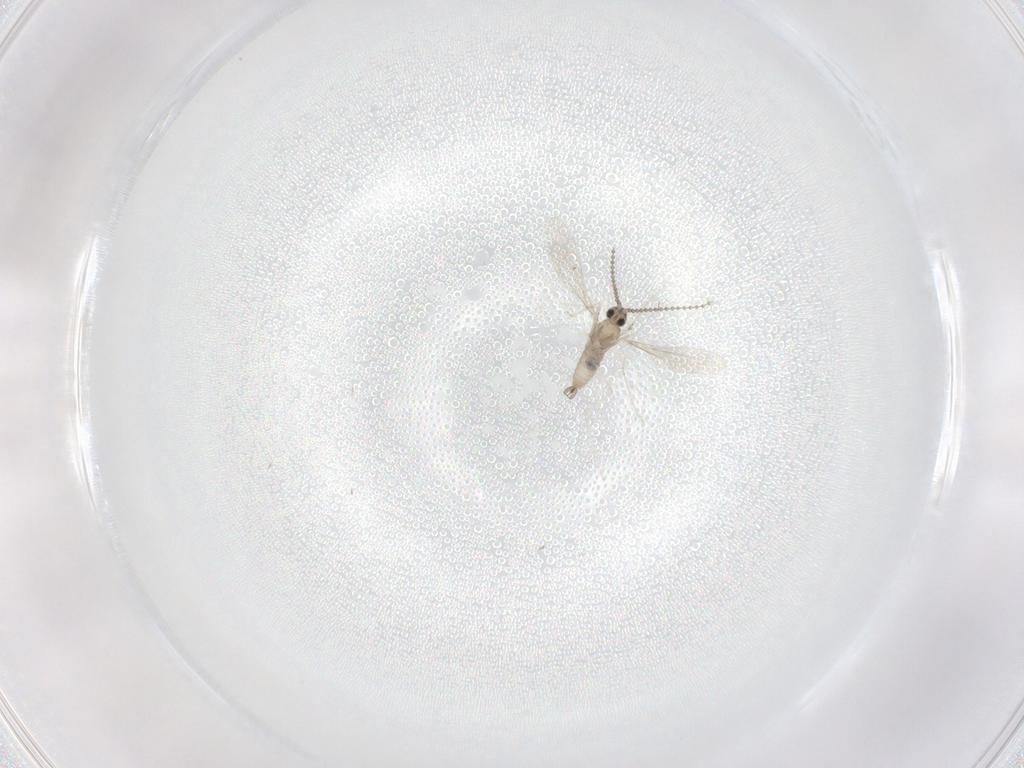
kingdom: Animalia
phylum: Arthropoda
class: Insecta
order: Diptera
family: Cecidomyiidae
